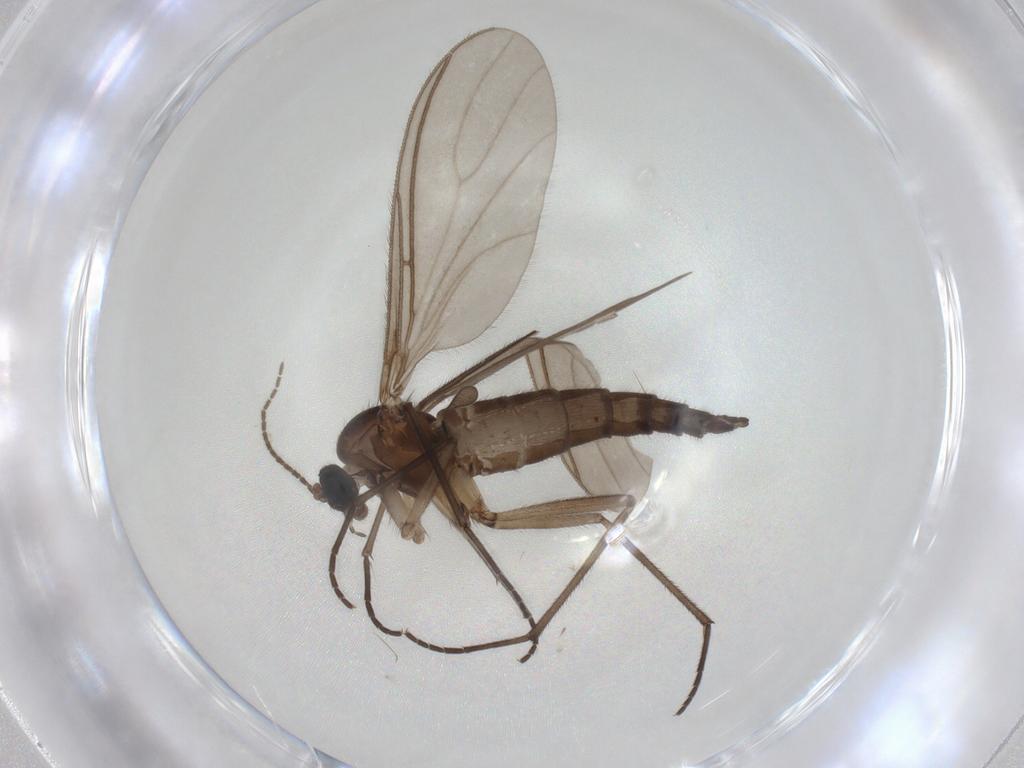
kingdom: Animalia
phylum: Arthropoda
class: Insecta
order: Diptera
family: Sciaridae
